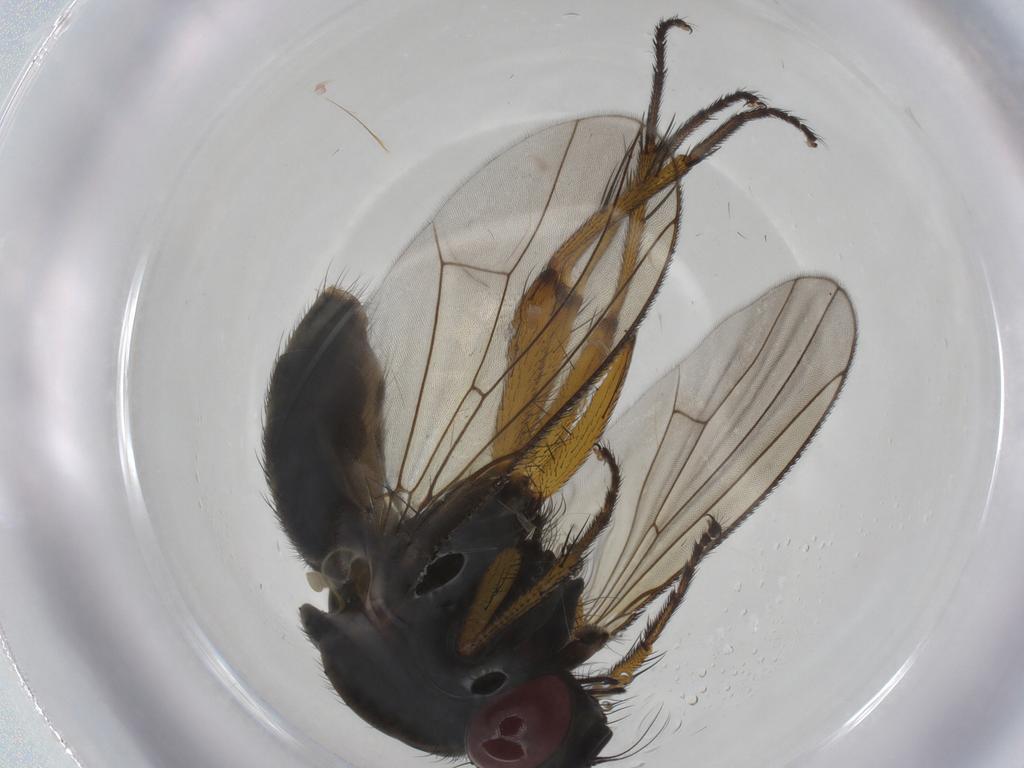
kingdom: Animalia
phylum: Arthropoda
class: Insecta
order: Diptera
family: Muscidae
